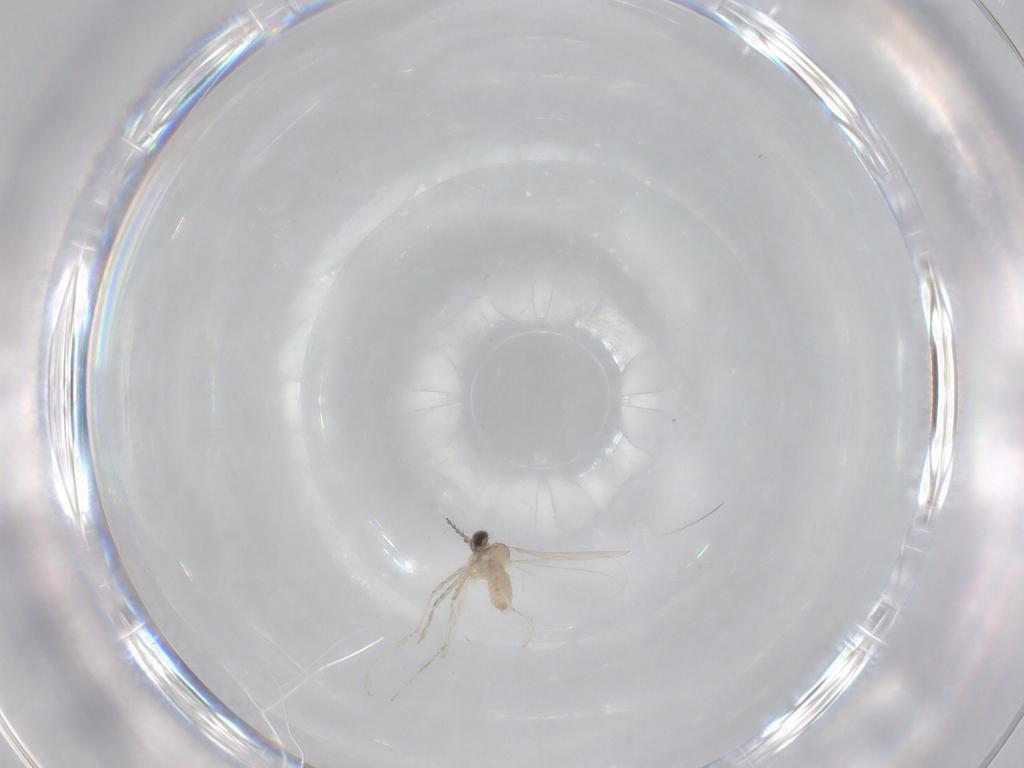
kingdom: Animalia
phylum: Arthropoda
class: Insecta
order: Diptera
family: Cecidomyiidae
